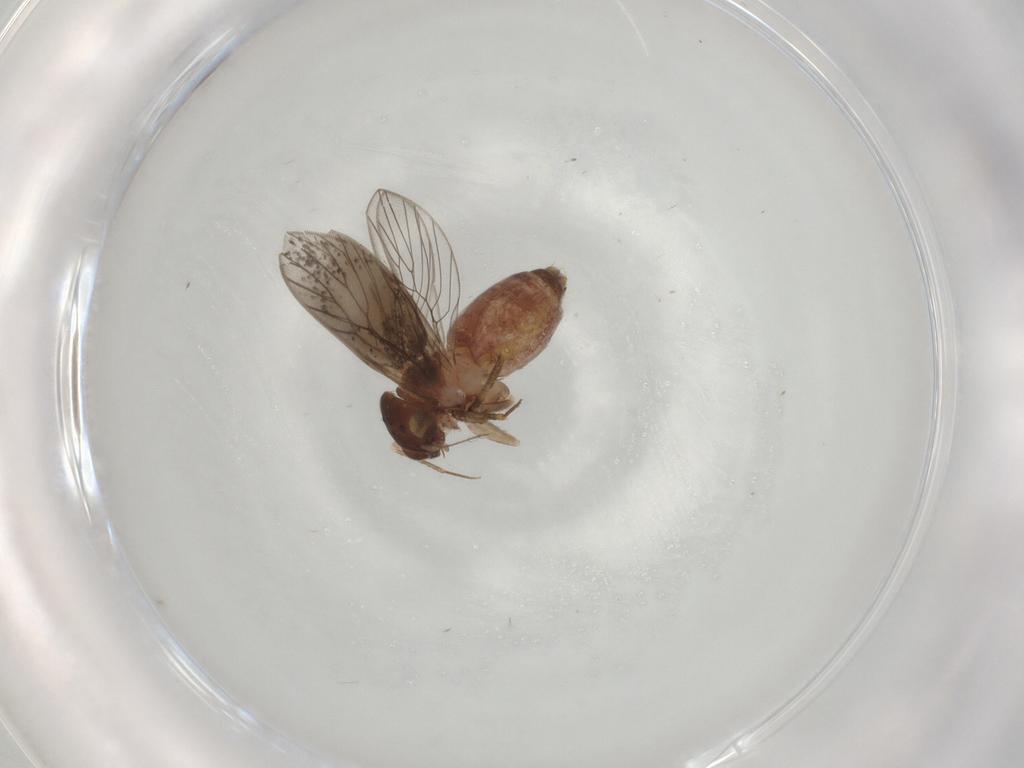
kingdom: Animalia
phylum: Arthropoda
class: Insecta
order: Psocodea
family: Lepidopsocidae
